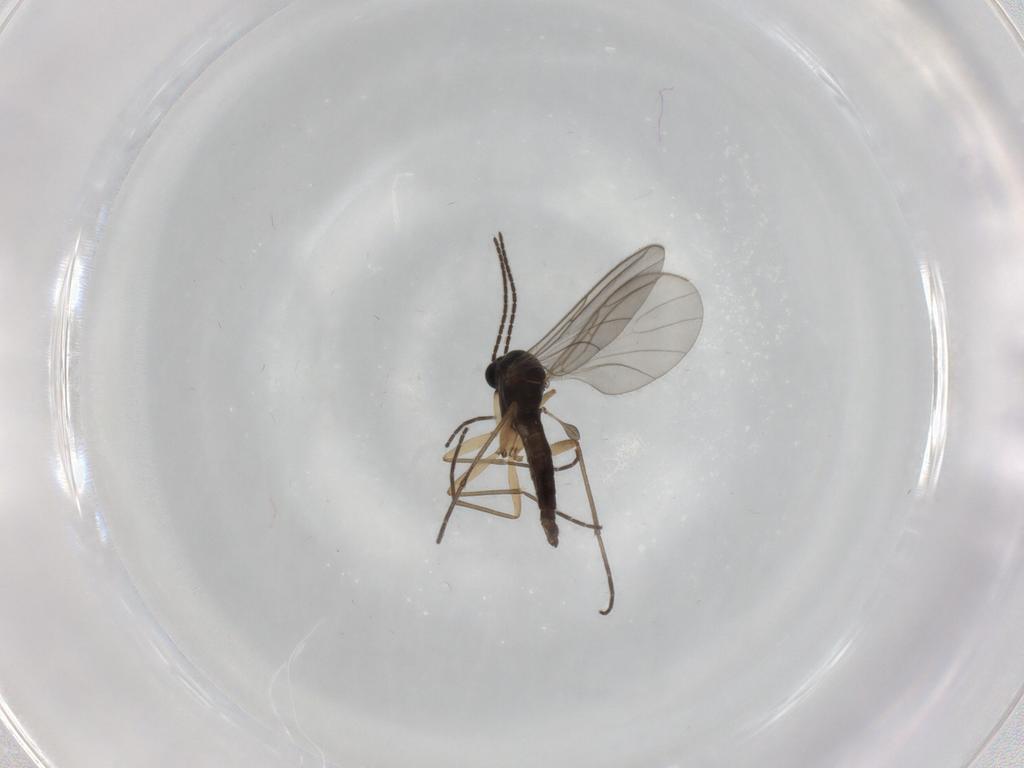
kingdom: Animalia
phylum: Arthropoda
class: Insecta
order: Diptera
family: Sciaridae
